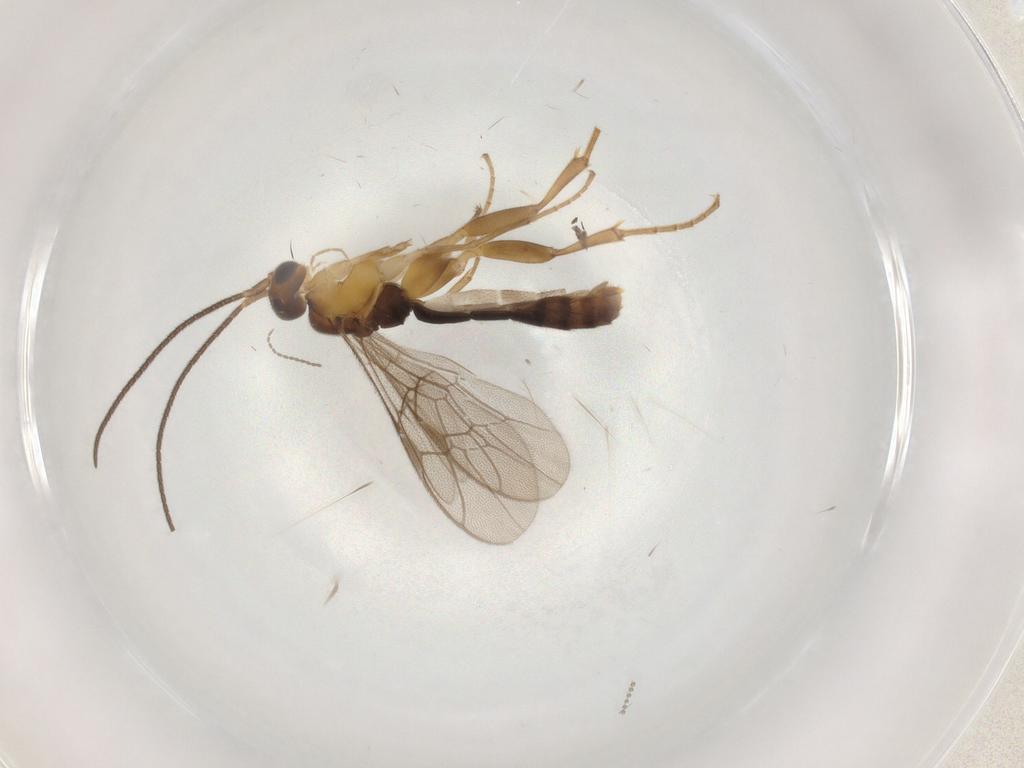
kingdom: Animalia
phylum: Arthropoda
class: Insecta
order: Hymenoptera
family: Ichneumonidae
